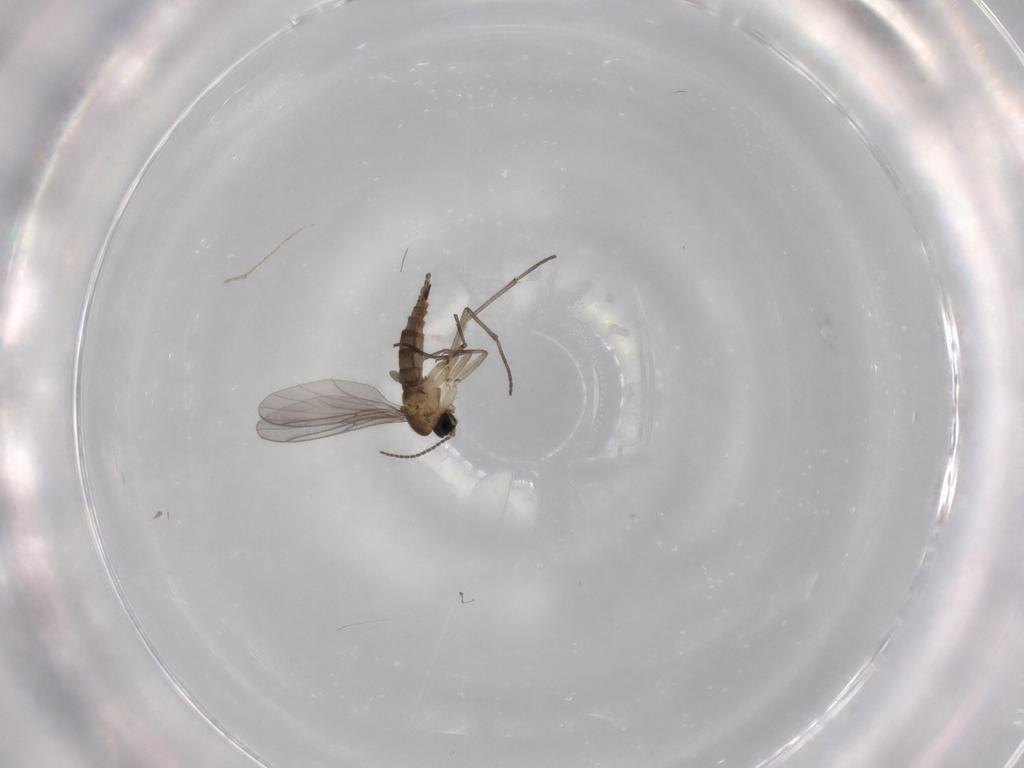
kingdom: Animalia
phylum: Arthropoda
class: Insecta
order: Diptera
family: Sciaridae
